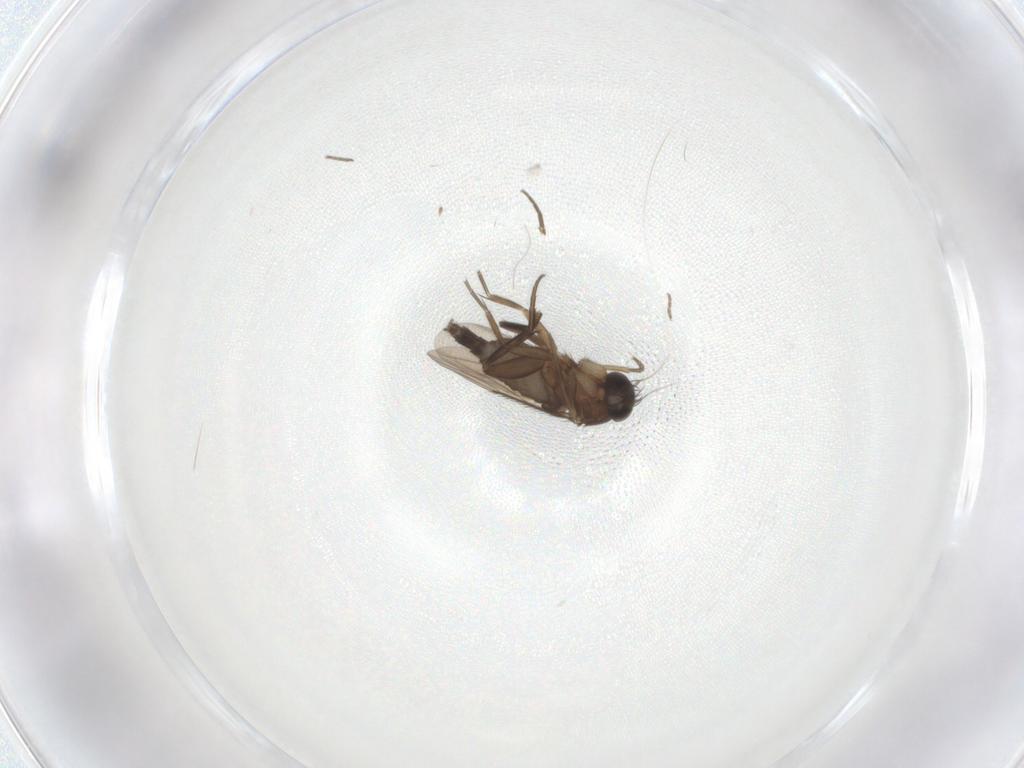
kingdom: Animalia
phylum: Arthropoda
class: Insecta
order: Diptera
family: Phoridae
